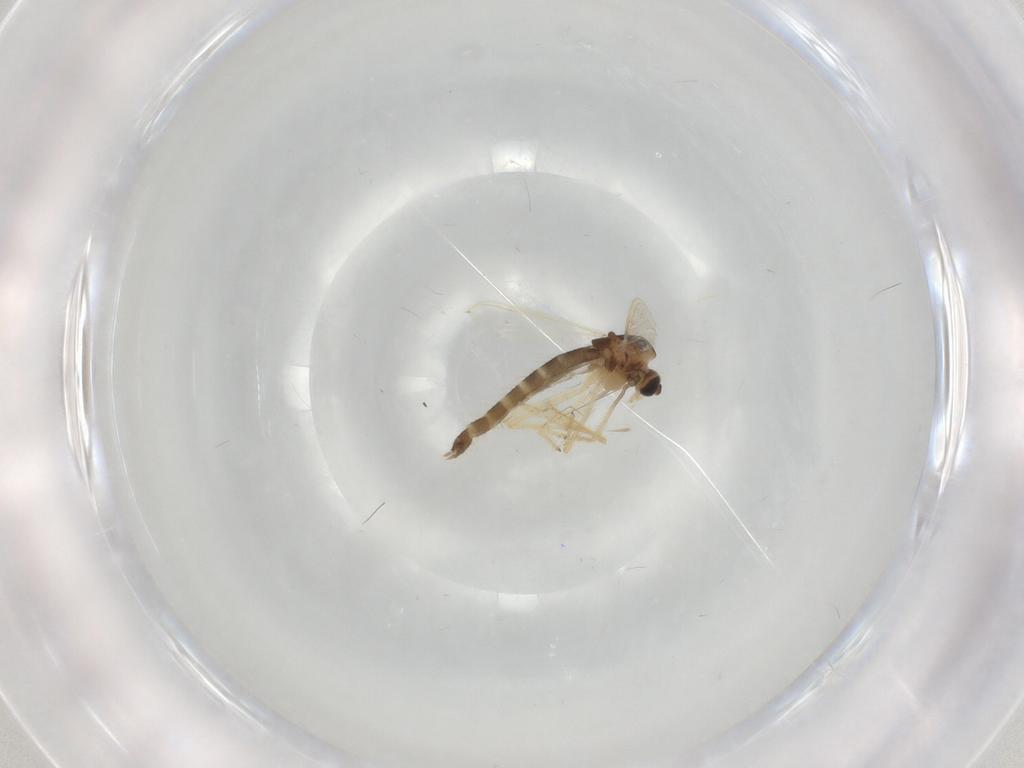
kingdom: Animalia
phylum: Arthropoda
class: Insecta
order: Diptera
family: Chironomidae
